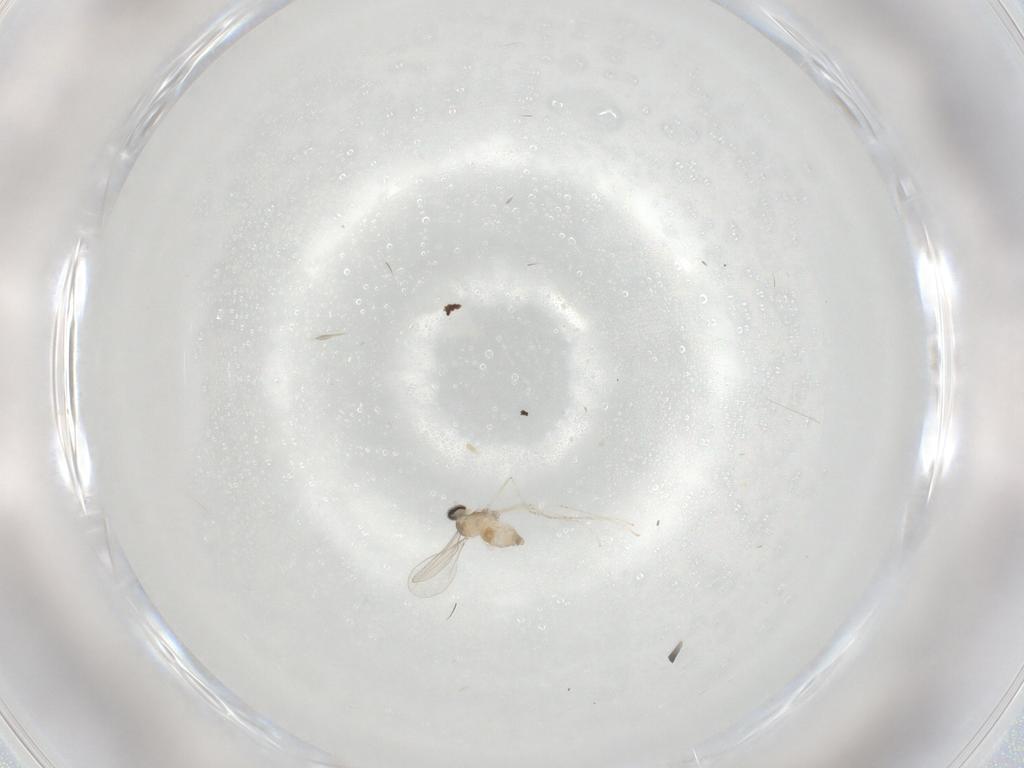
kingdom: Animalia
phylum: Arthropoda
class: Insecta
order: Diptera
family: Cecidomyiidae
